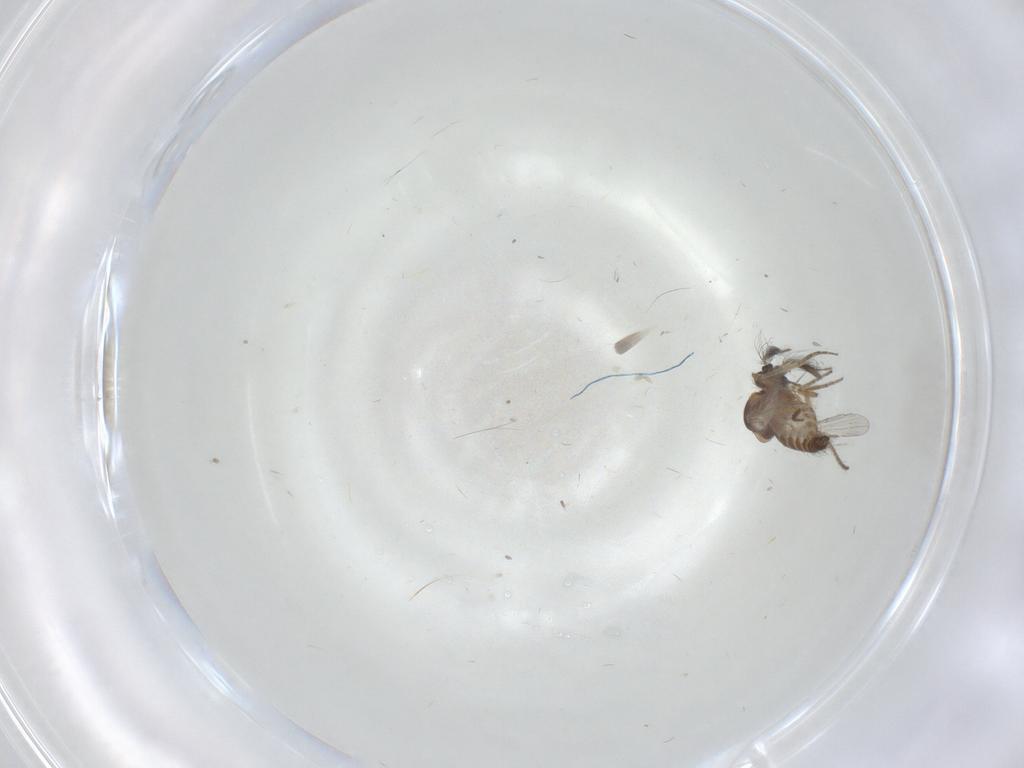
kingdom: Animalia
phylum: Arthropoda
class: Insecta
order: Diptera
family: Ceratopogonidae
